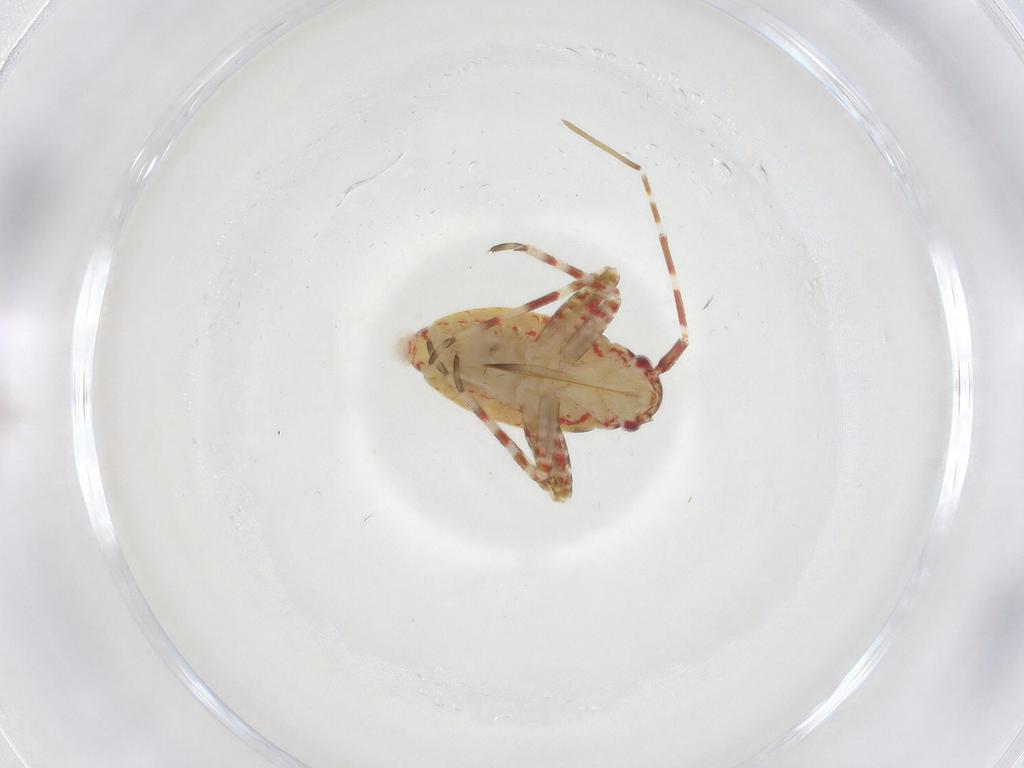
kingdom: Animalia
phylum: Arthropoda
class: Insecta
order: Hemiptera
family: Miridae
